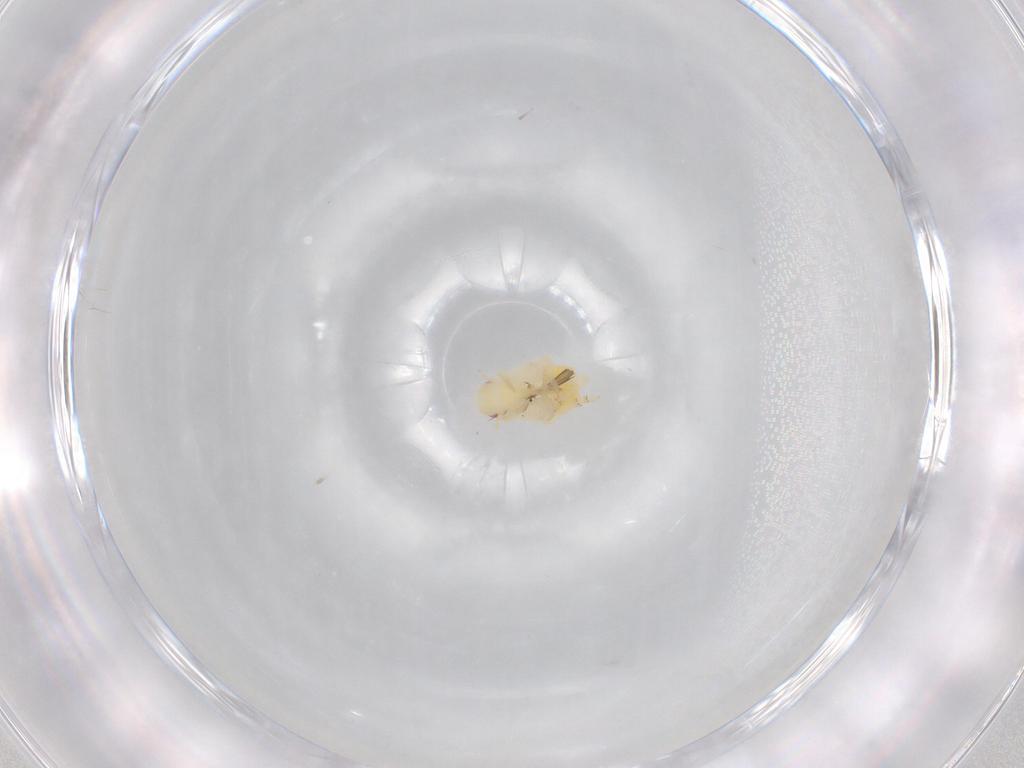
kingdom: Animalia
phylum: Arthropoda
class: Insecta
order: Hemiptera
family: Flatidae
